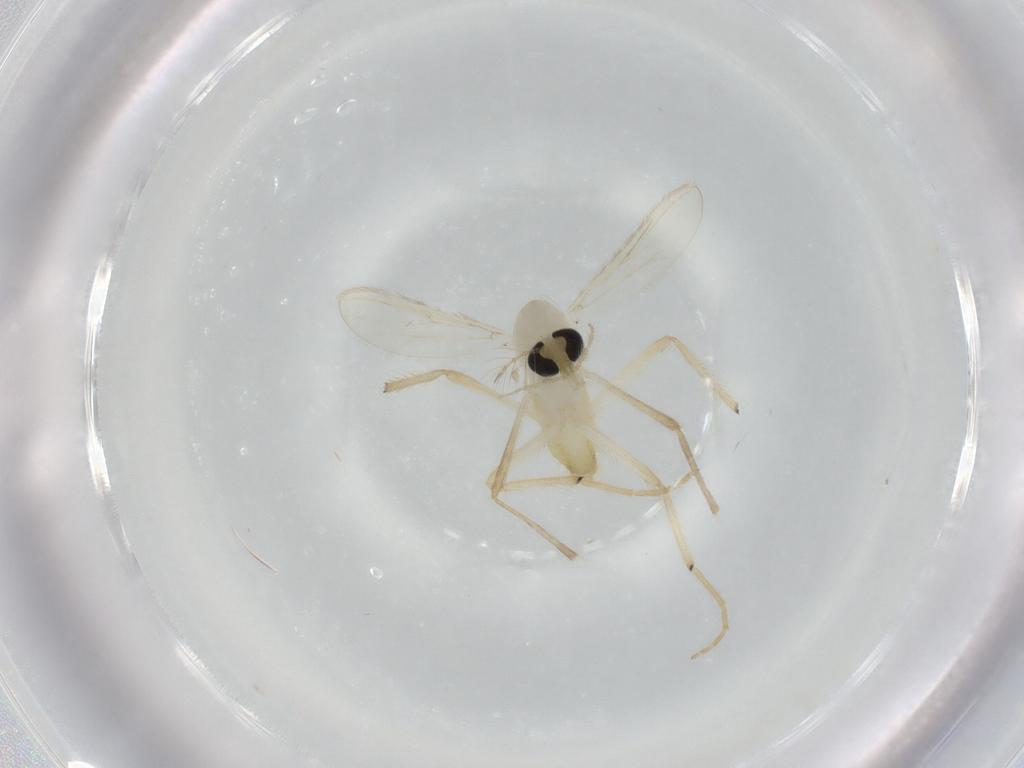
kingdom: Animalia
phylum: Arthropoda
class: Insecta
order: Diptera
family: Chironomidae
